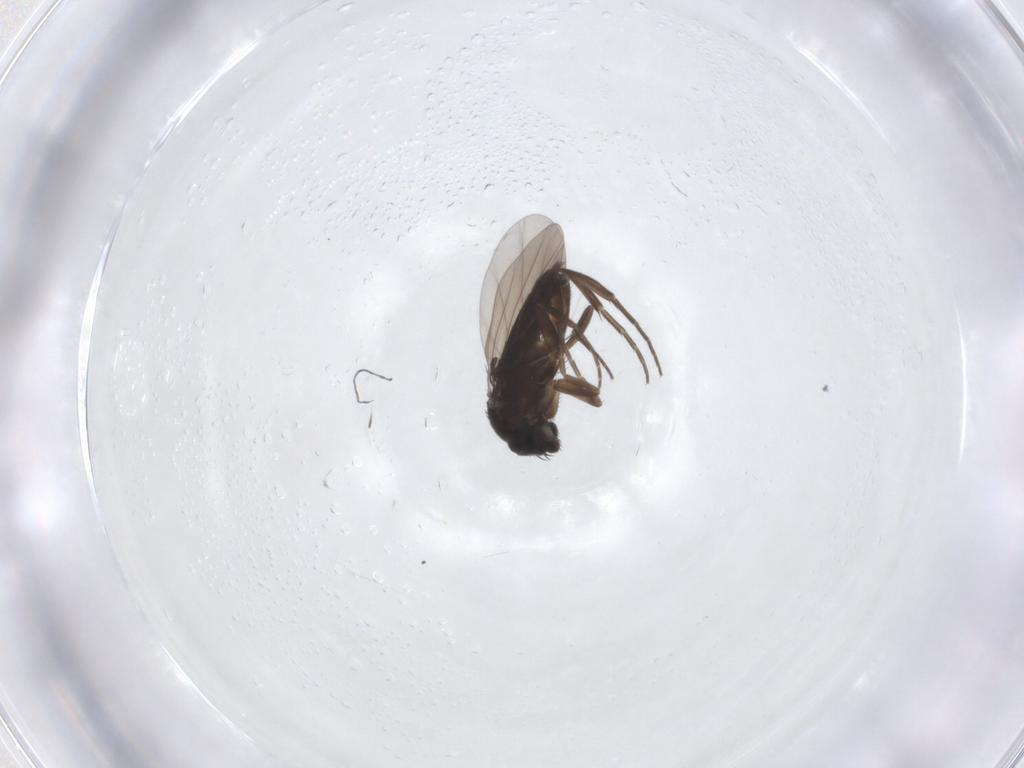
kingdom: Animalia
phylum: Arthropoda
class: Insecta
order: Diptera
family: Phoridae
